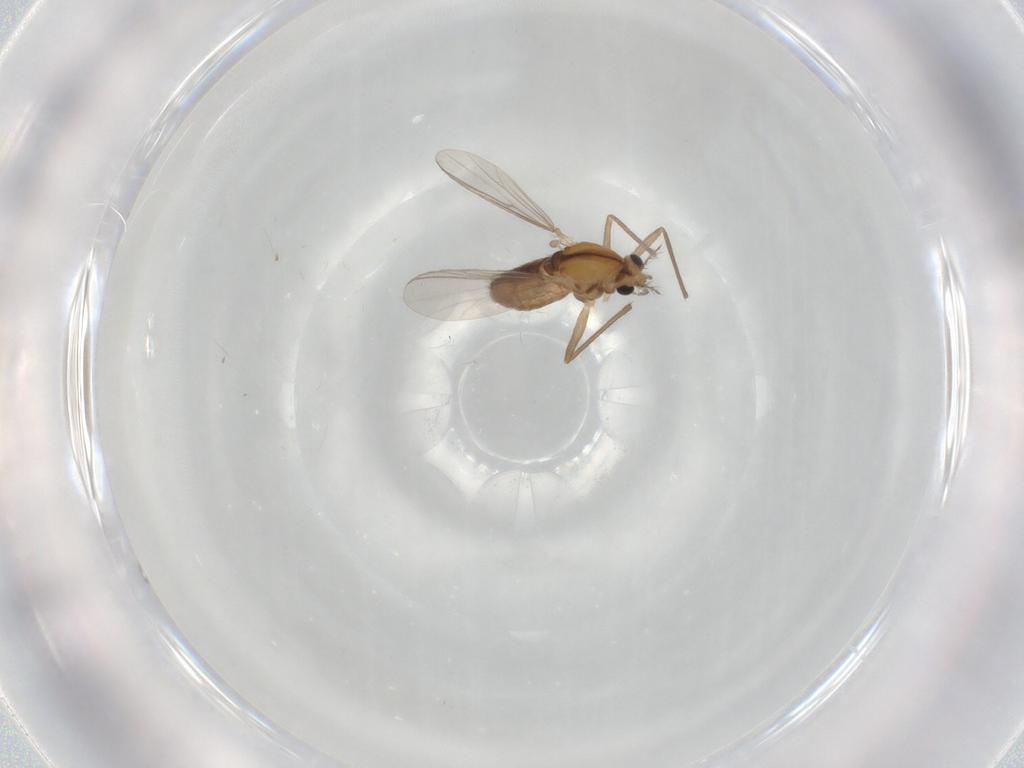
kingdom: Animalia
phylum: Arthropoda
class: Insecta
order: Diptera
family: Chironomidae
